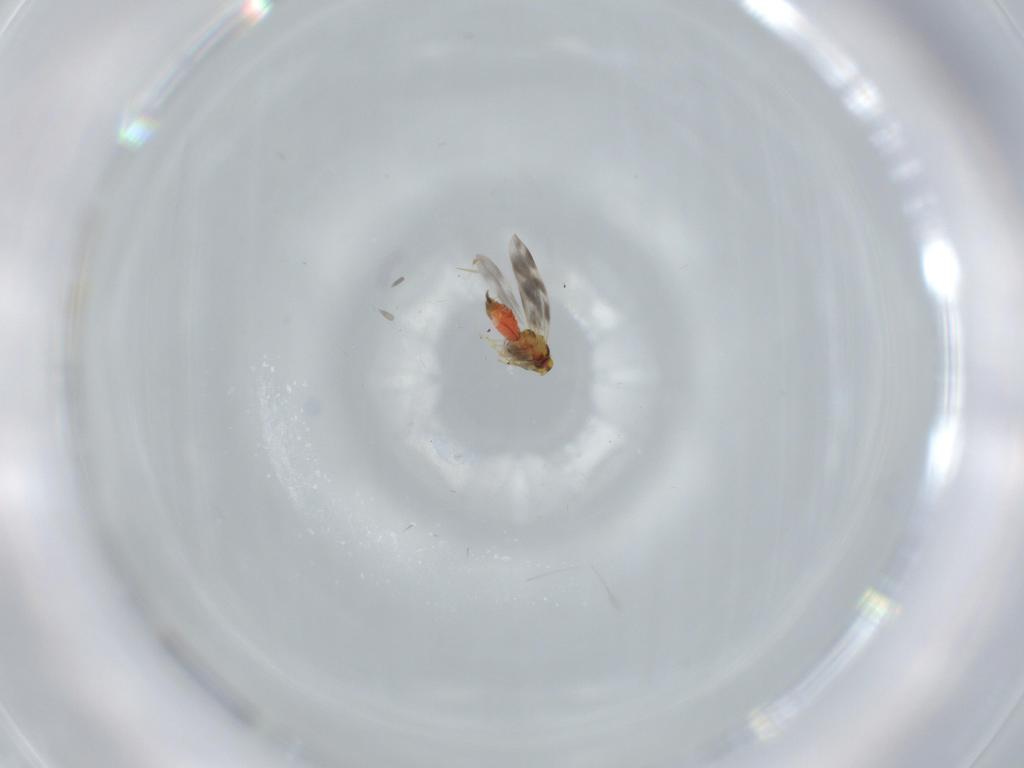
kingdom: Animalia
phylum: Arthropoda
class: Insecta
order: Hemiptera
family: Aleyrodidae
